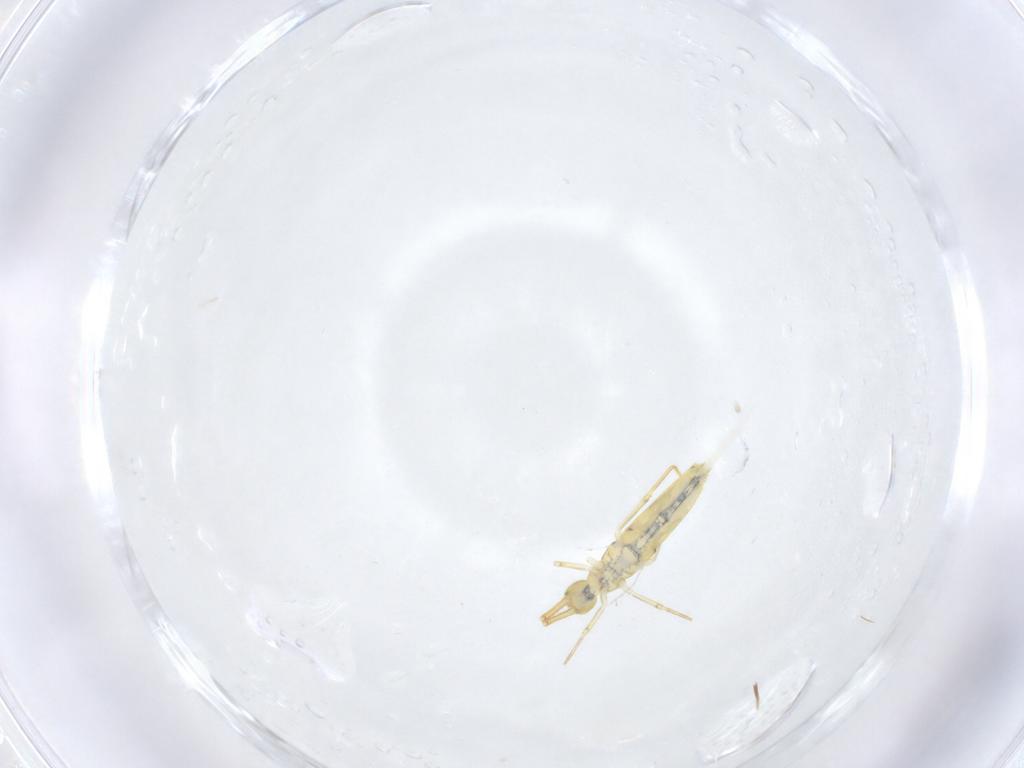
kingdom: Animalia
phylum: Arthropoda
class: Collembola
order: Entomobryomorpha
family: Entomobryidae
